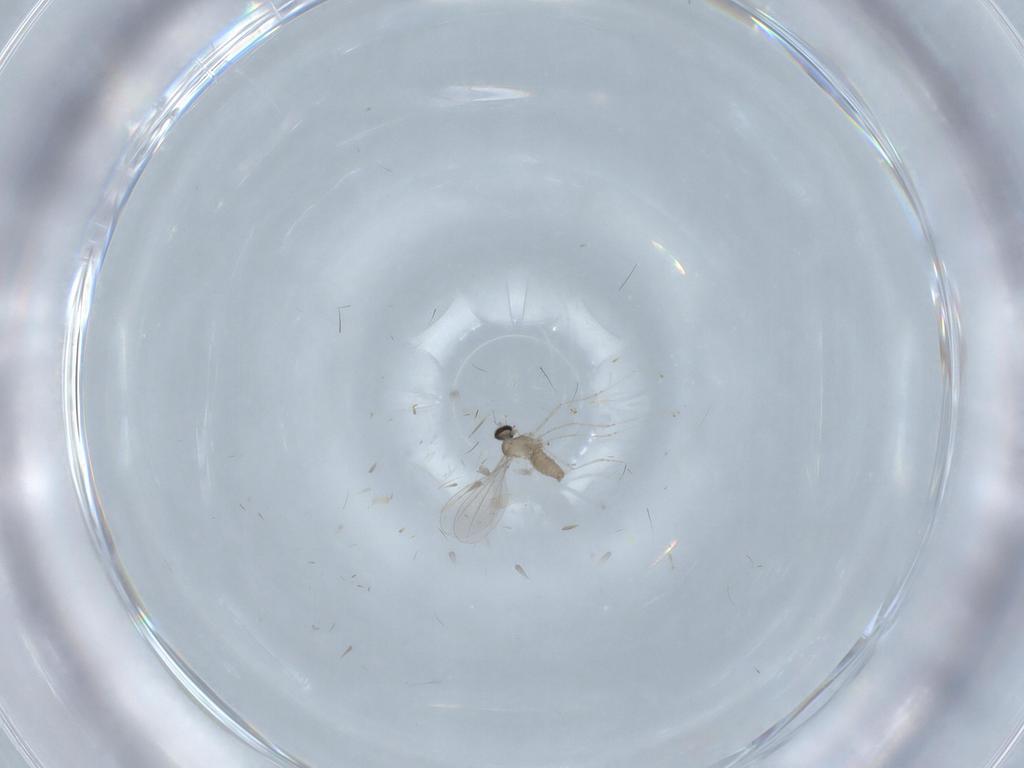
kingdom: Animalia
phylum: Arthropoda
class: Insecta
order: Diptera
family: Cecidomyiidae
